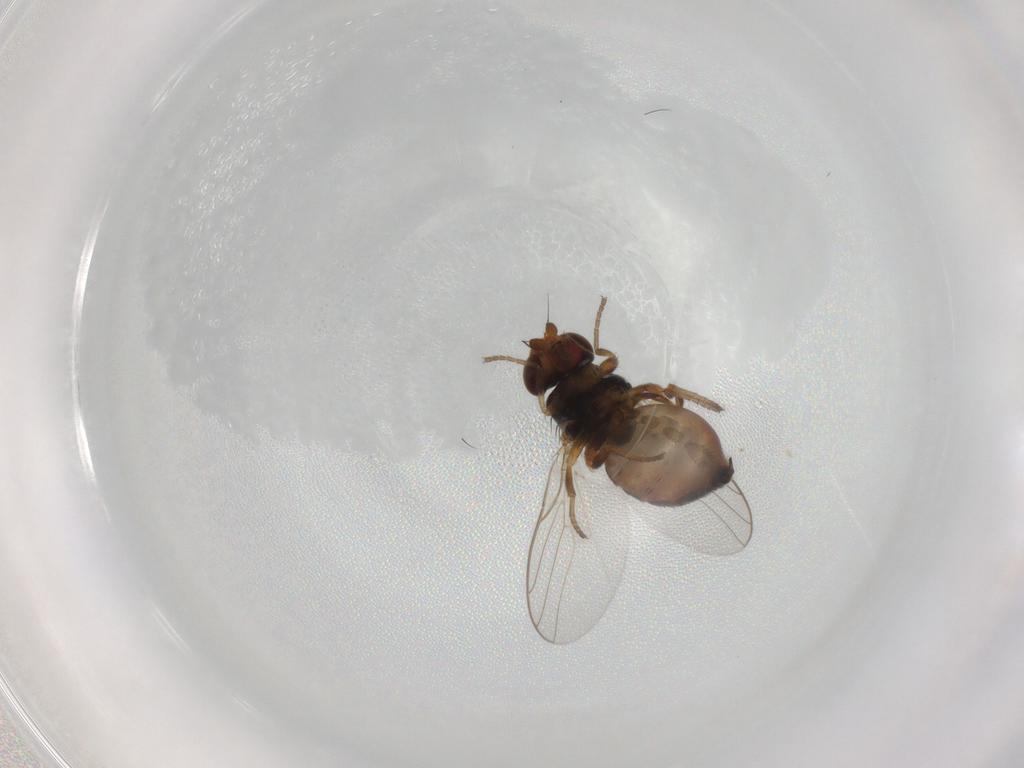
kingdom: Animalia
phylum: Arthropoda
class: Insecta
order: Diptera
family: Chloropidae
